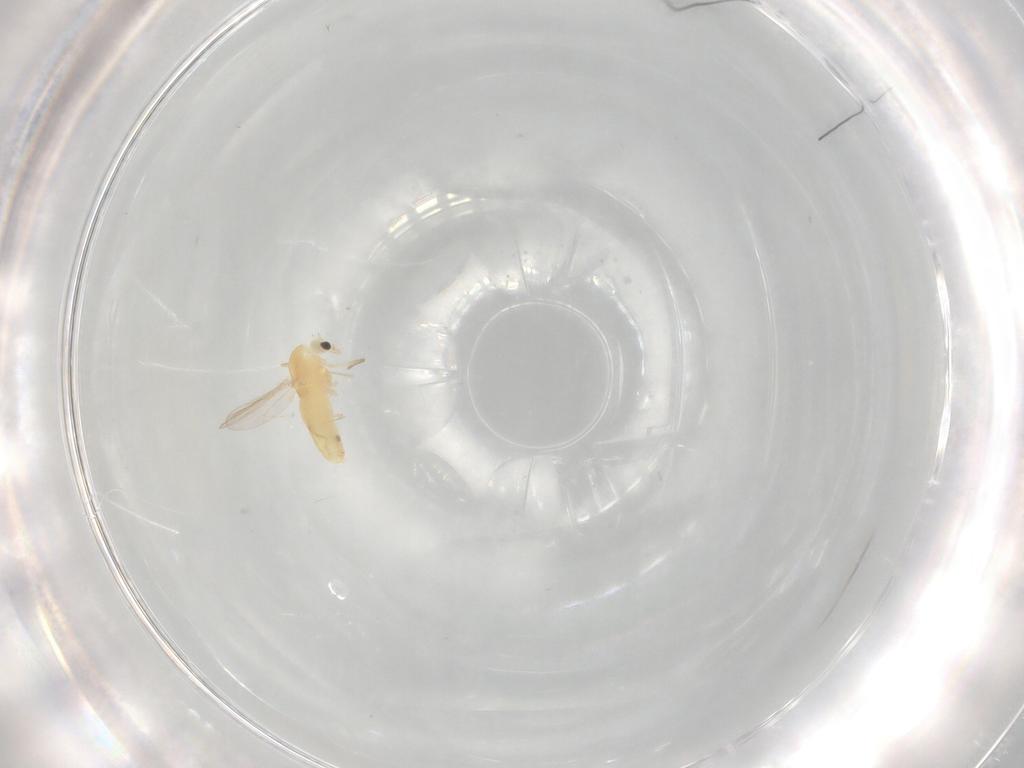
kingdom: Animalia
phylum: Arthropoda
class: Insecta
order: Diptera
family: Chironomidae
